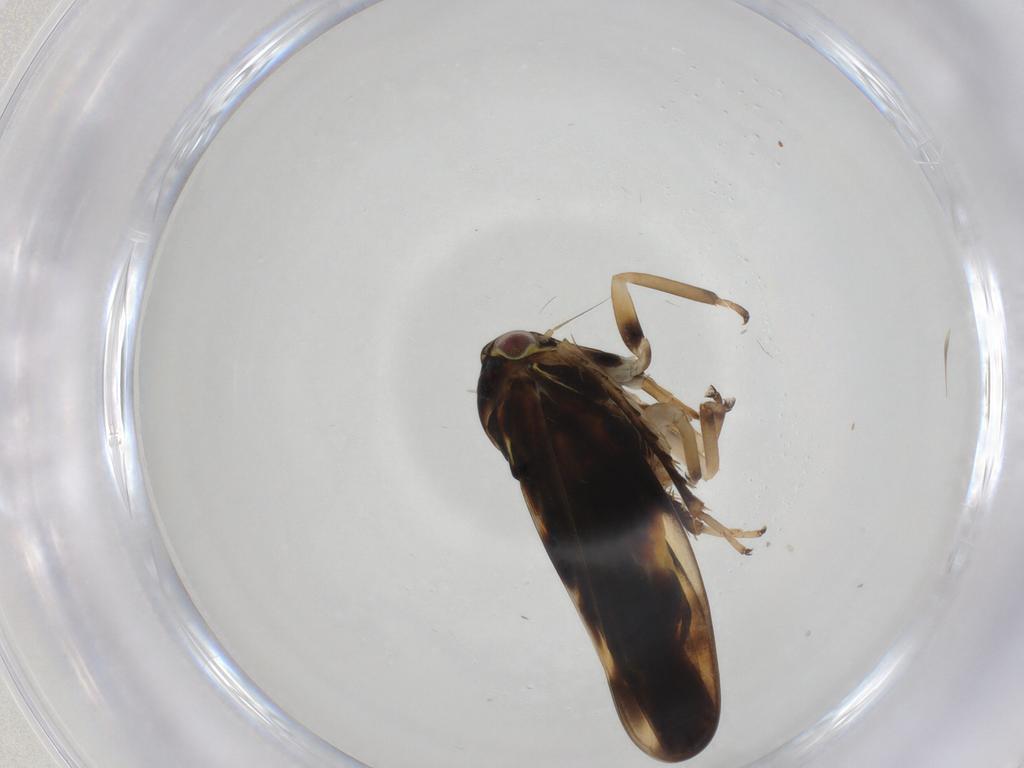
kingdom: Animalia
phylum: Arthropoda
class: Insecta
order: Hemiptera
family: Cicadellidae
